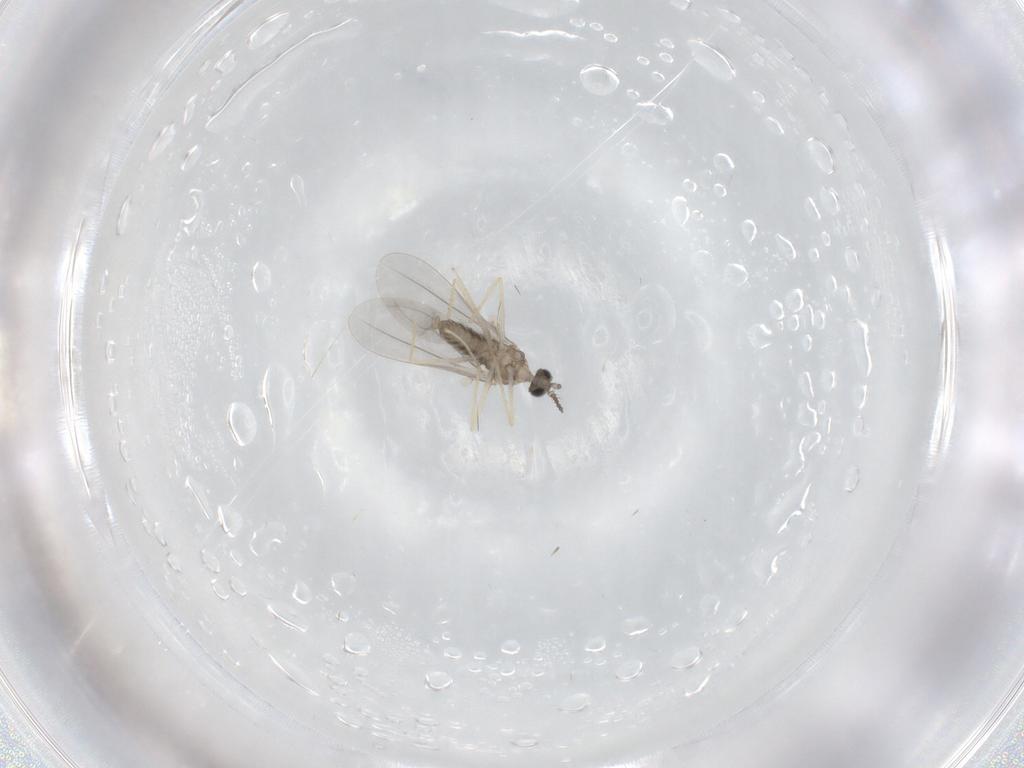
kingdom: Animalia
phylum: Arthropoda
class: Insecta
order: Diptera
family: Cecidomyiidae
